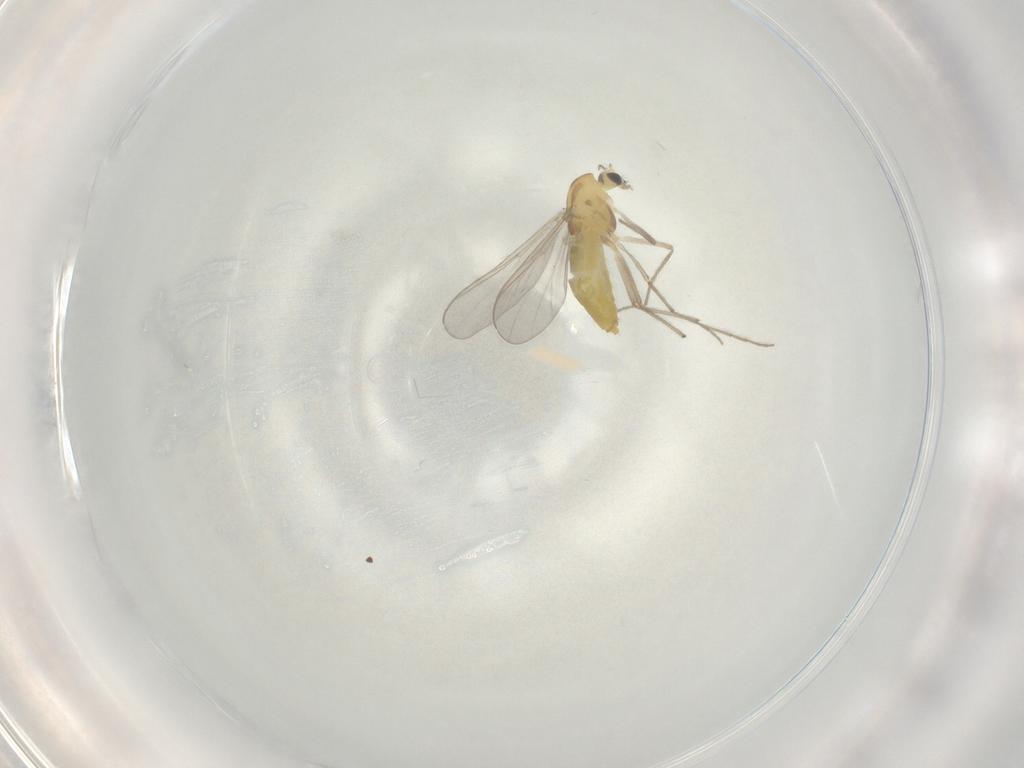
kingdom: Animalia
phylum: Arthropoda
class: Insecta
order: Diptera
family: Chironomidae
